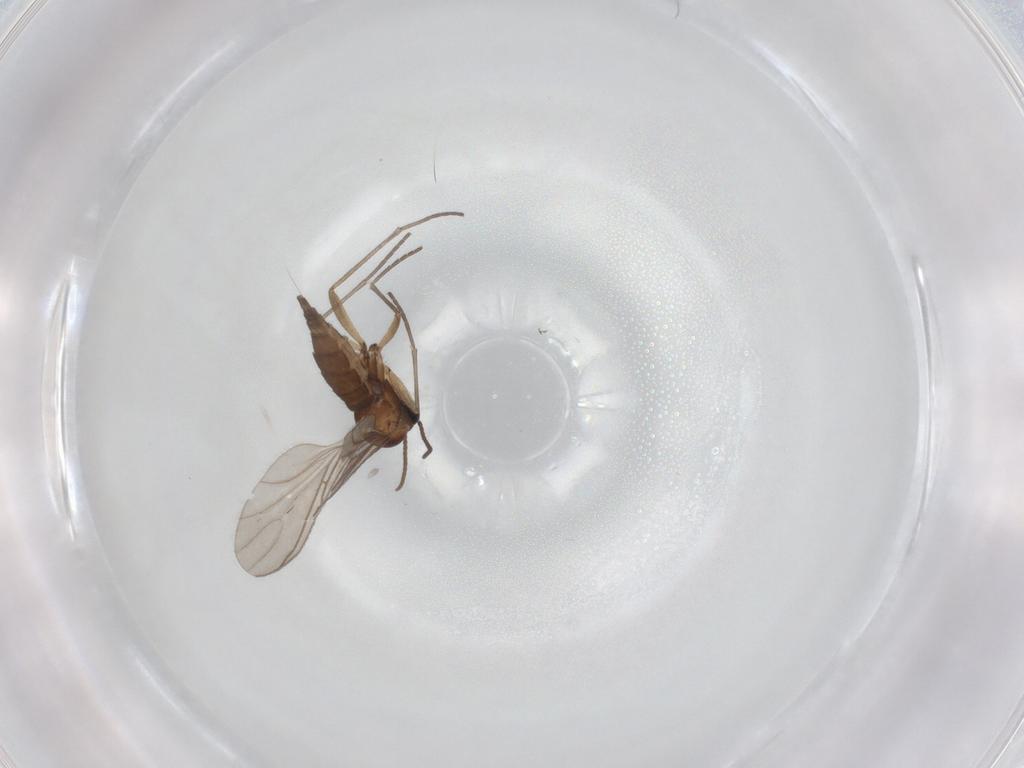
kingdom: Animalia
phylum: Arthropoda
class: Insecta
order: Diptera
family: Sciaridae
